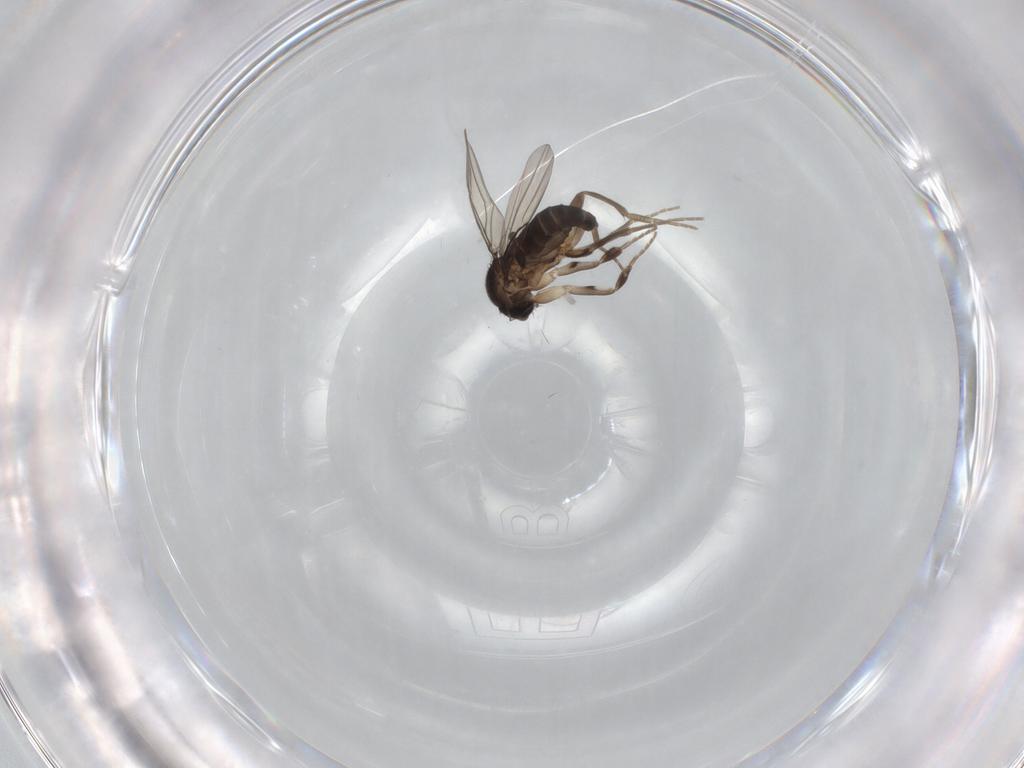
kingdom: Animalia
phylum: Arthropoda
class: Insecta
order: Diptera
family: Phoridae
